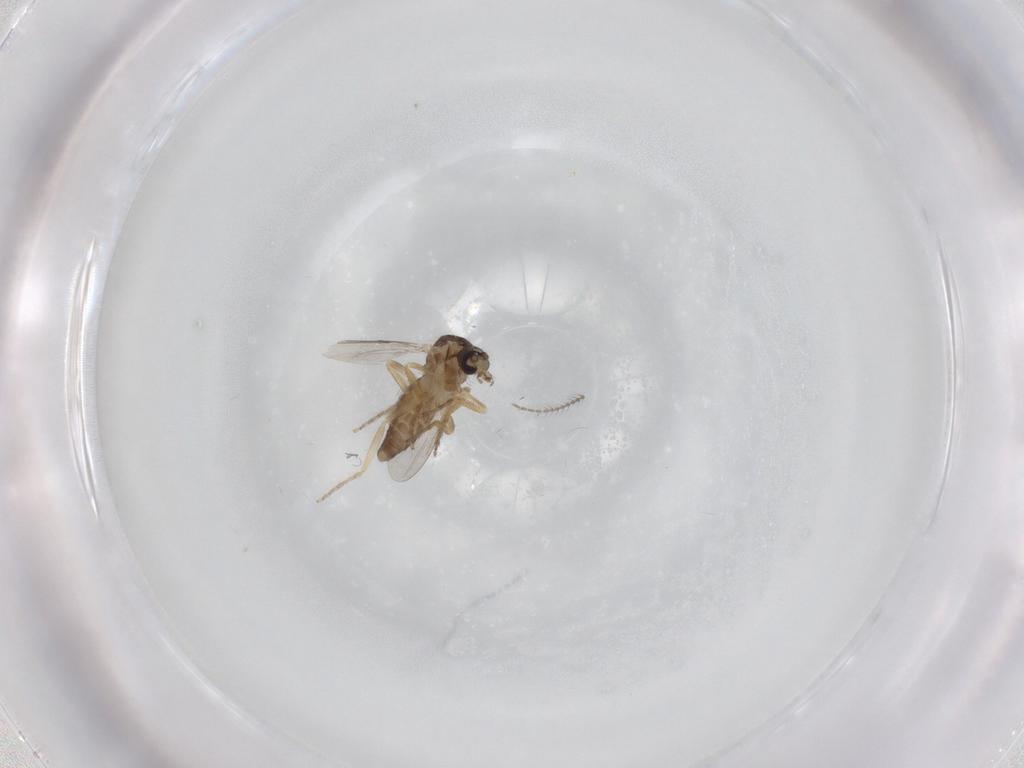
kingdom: Animalia
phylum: Arthropoda
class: Insecta
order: Diptera
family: Ceratopogonidae
